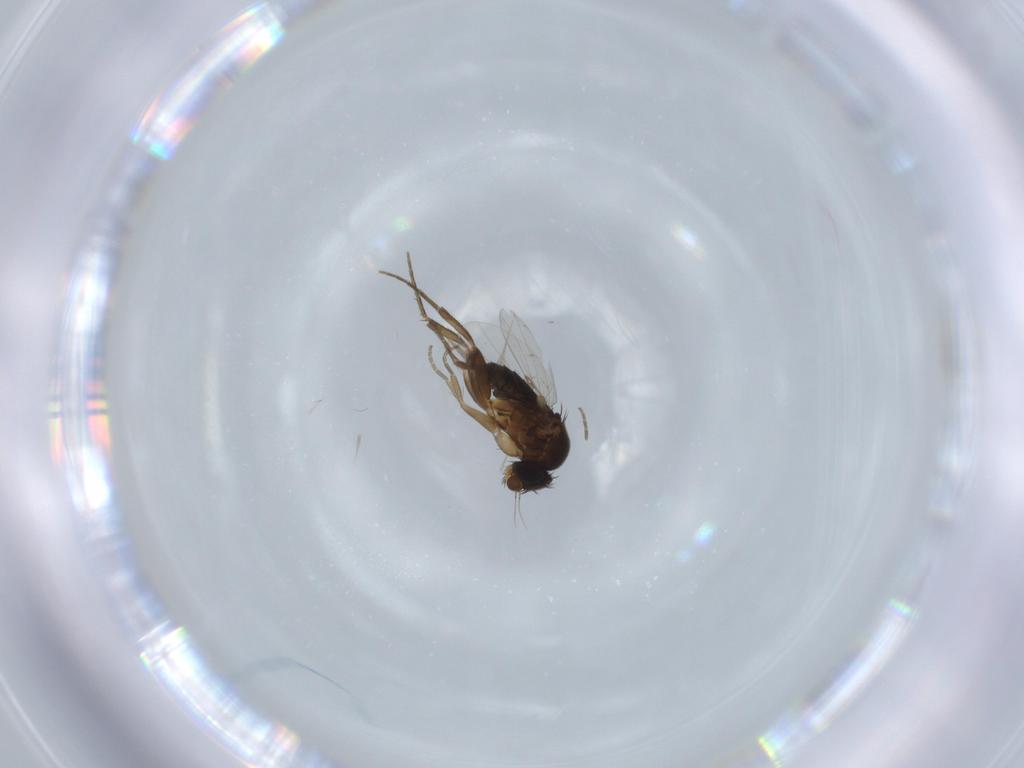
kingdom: Animalia
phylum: Arthropoda
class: Insecta
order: Diptera
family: Phoridae
